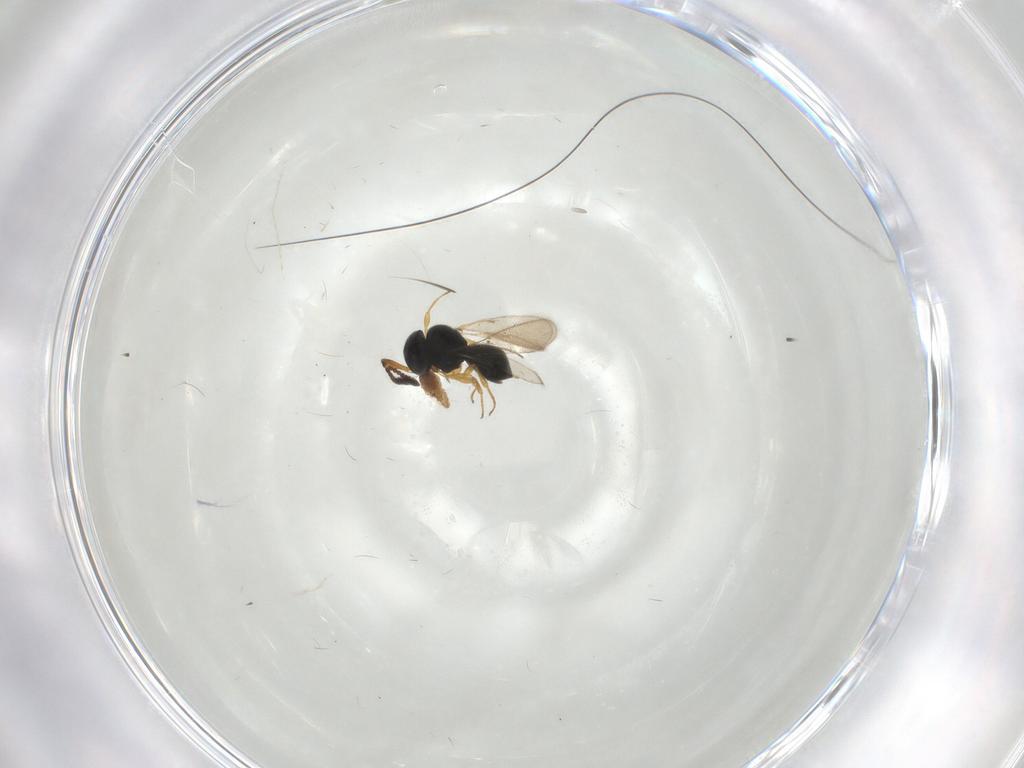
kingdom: Animalia
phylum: Arthropoda
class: Insecta
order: Hymenoptera
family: Scelionidae
